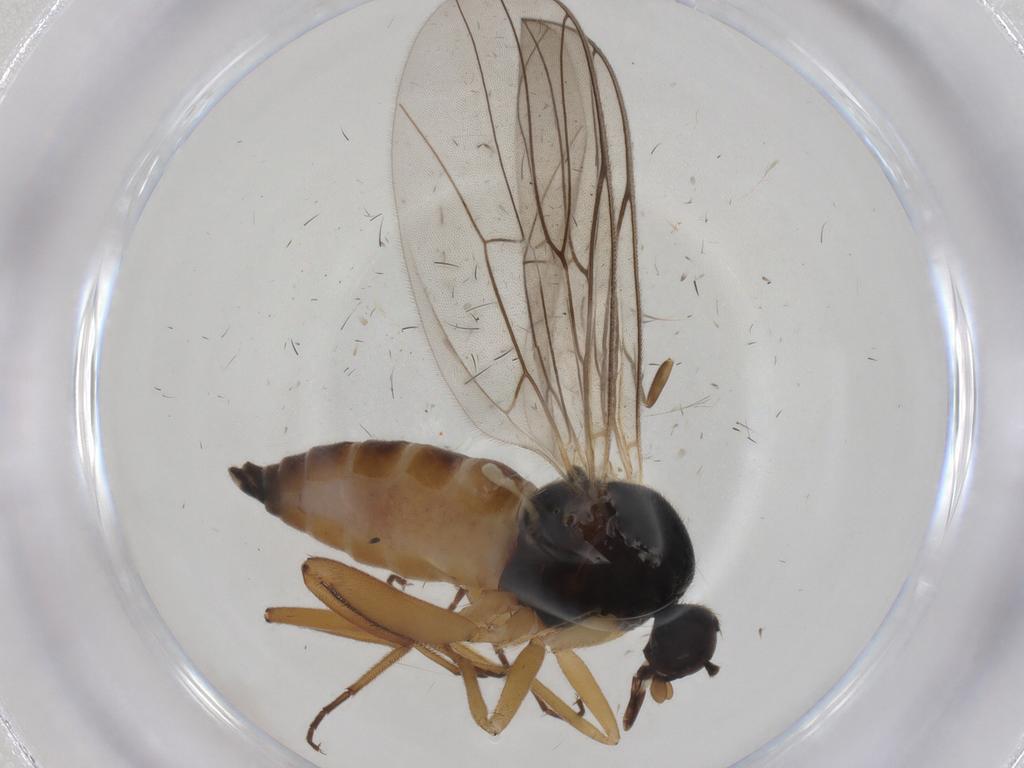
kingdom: Animalia
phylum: Arthropoda
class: Insecta
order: Diptera
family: Hybotidae
